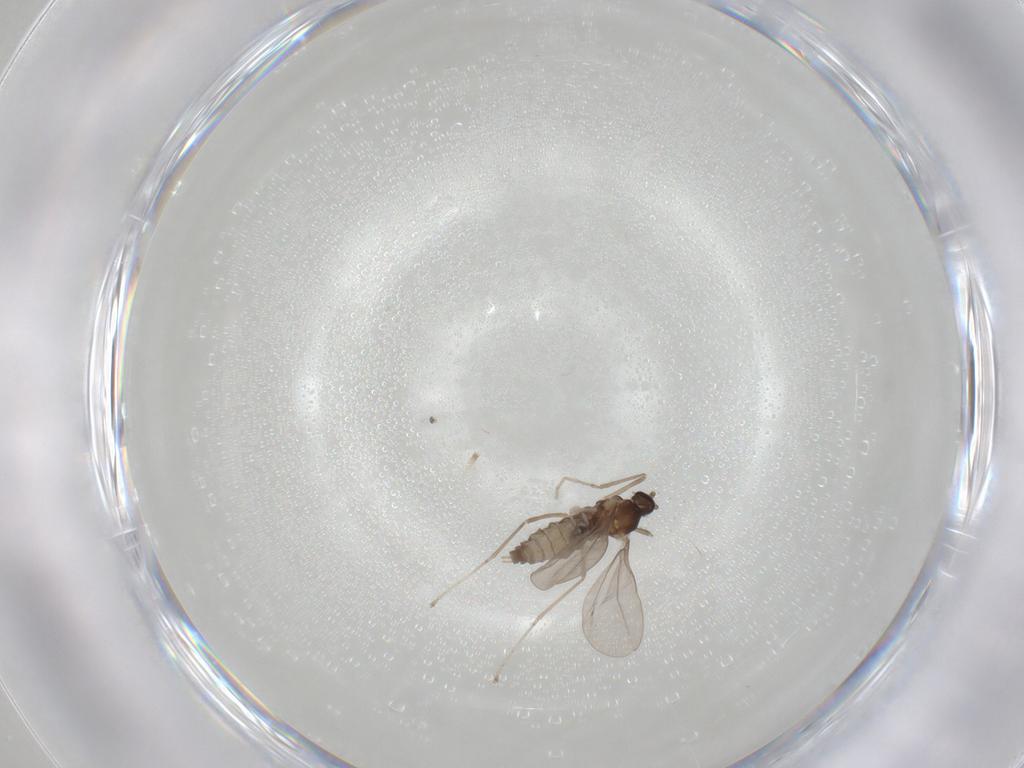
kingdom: Animalia
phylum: Arthropoda
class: Insecta
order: Diptera
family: Cecidomyiidae
